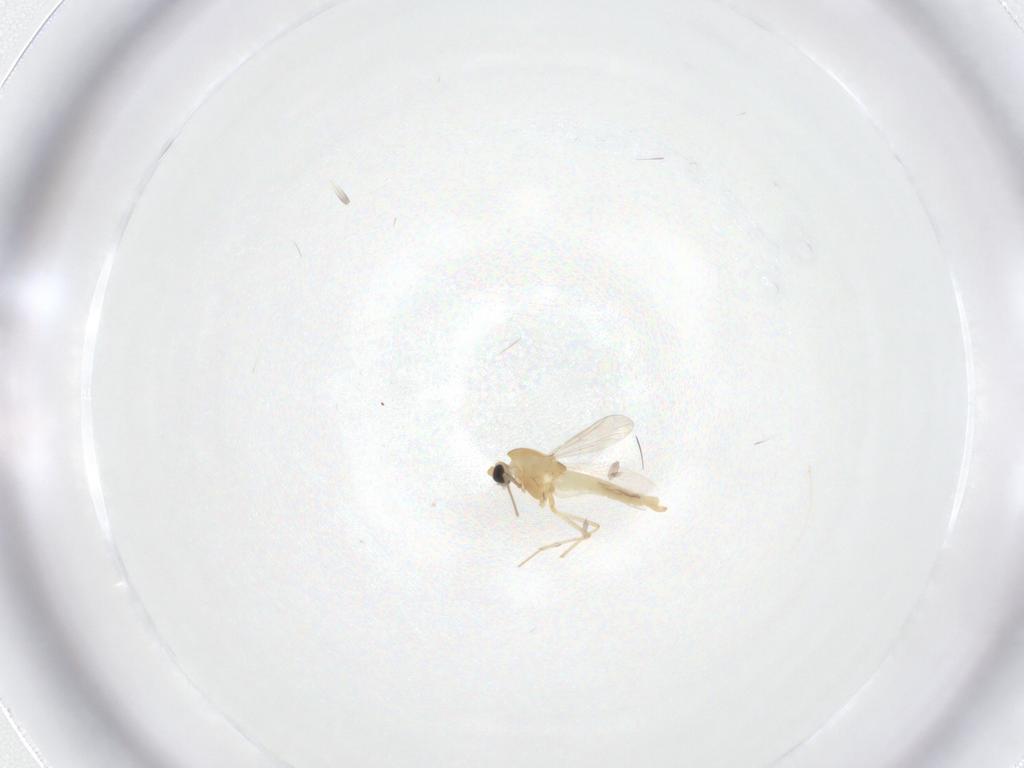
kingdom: Animalia
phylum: Arthropoda
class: Insecta
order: Diptera
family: Chironomidae
